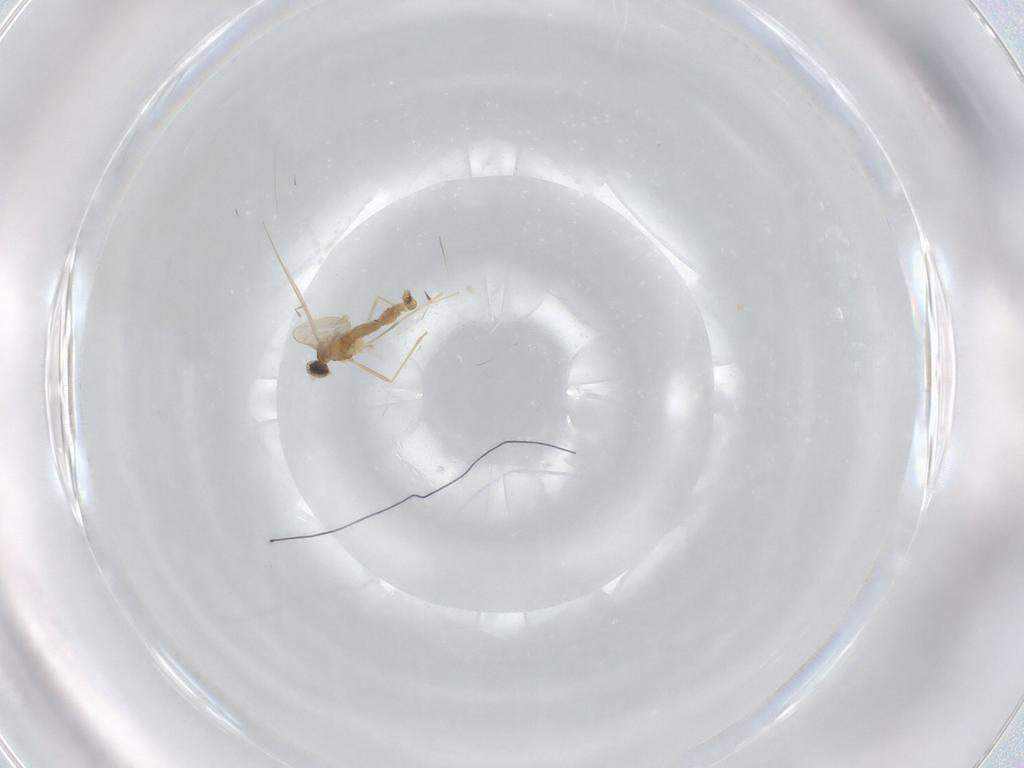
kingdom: Animalia
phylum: Arthropoda
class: Insecta
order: Diptera
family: Cecidomyiidae
